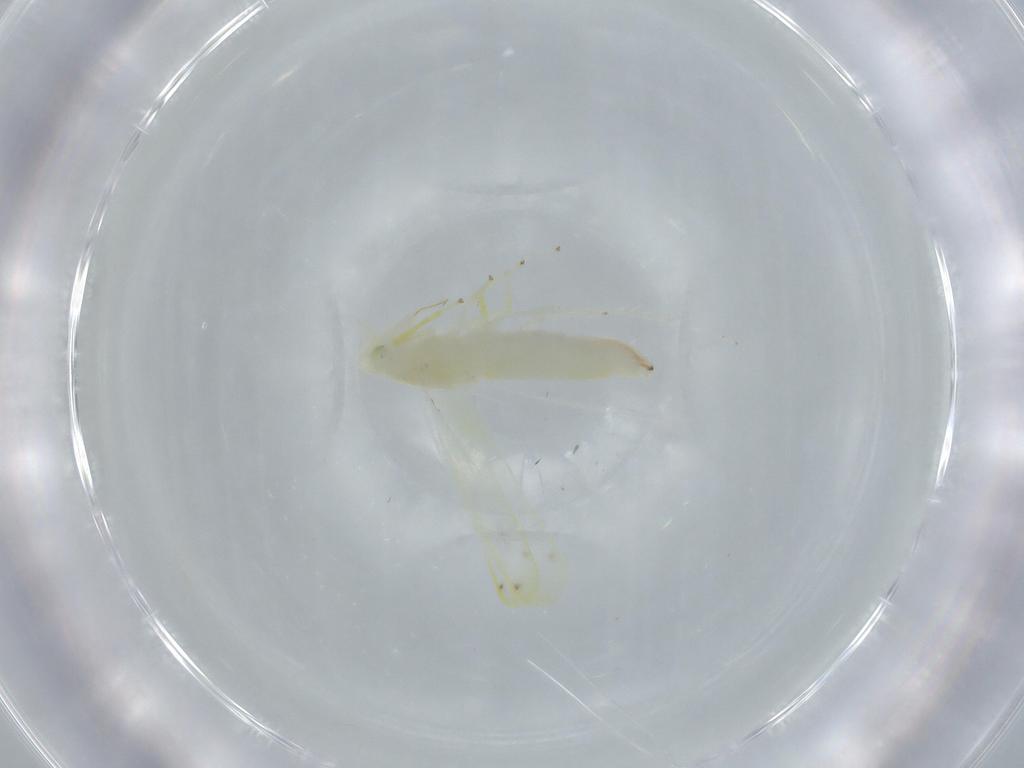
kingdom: Animalia
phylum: Arthropoda
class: Insecta
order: Hemiptera
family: Cicadellidae
